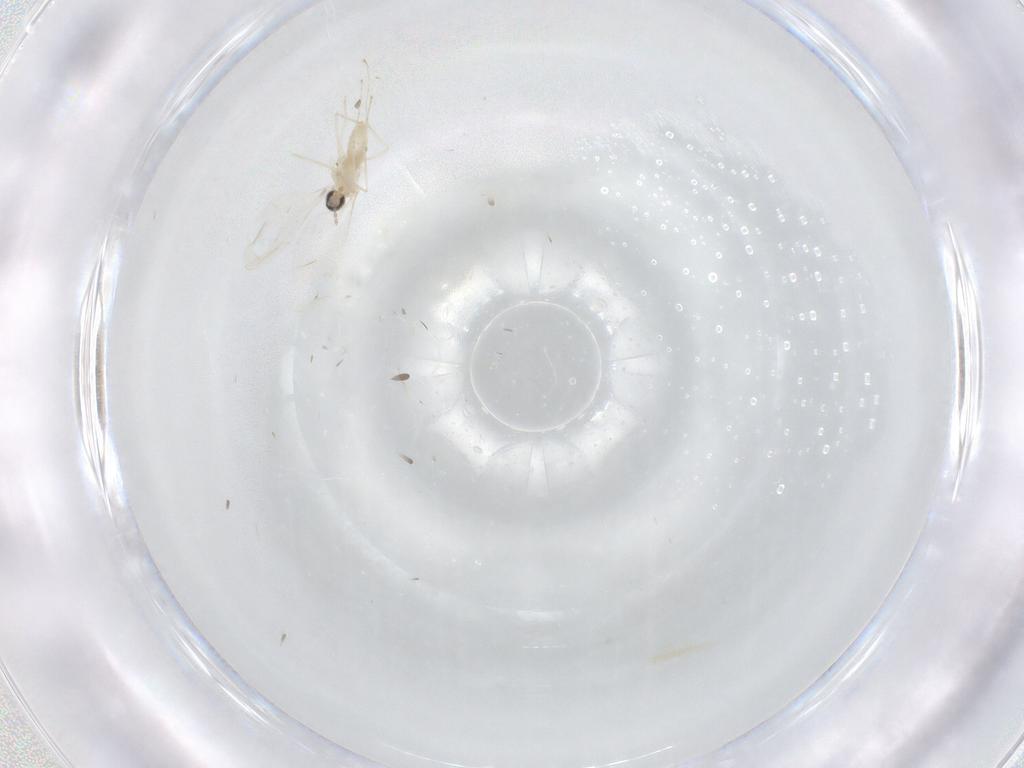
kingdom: Animalia
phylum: Arthropoda
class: Insecta
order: Diptera
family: Cecidomyiidae
